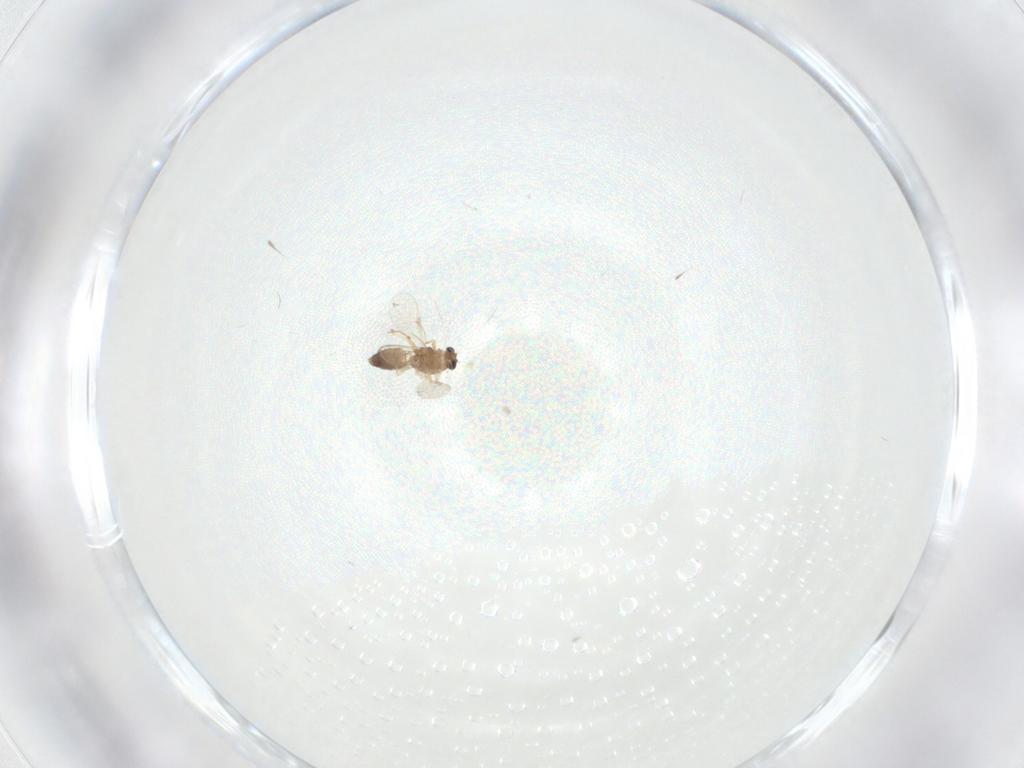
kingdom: Animalia
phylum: Arthropoda
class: Insecta
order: Diptera
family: Chironomidae
